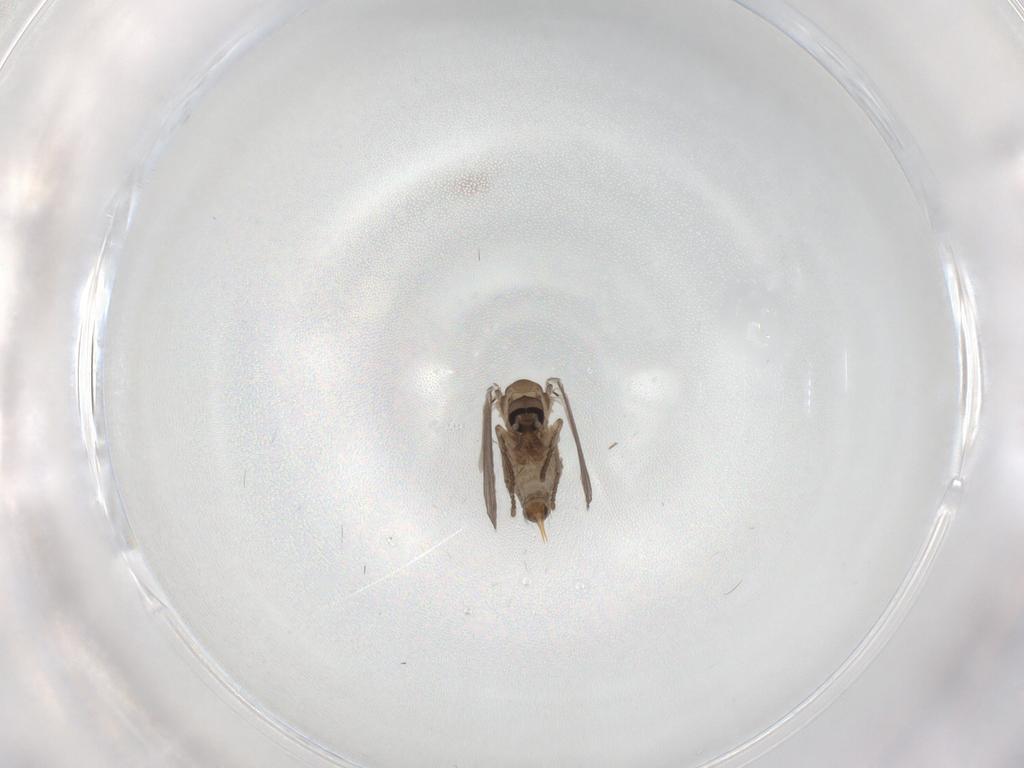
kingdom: Animalia
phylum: Arthropoda
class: Insecta
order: Diptera
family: Psychodidae
